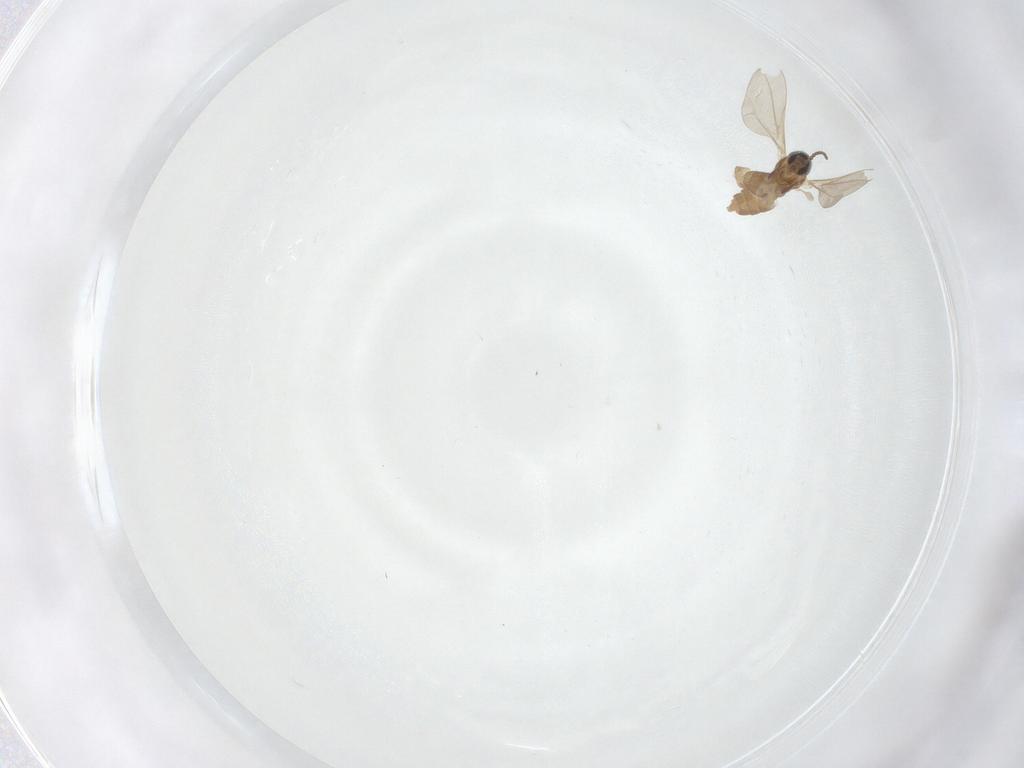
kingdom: Animalia
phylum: Arthropoda
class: Insecta
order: Diptera
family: Cecidomyiidae
